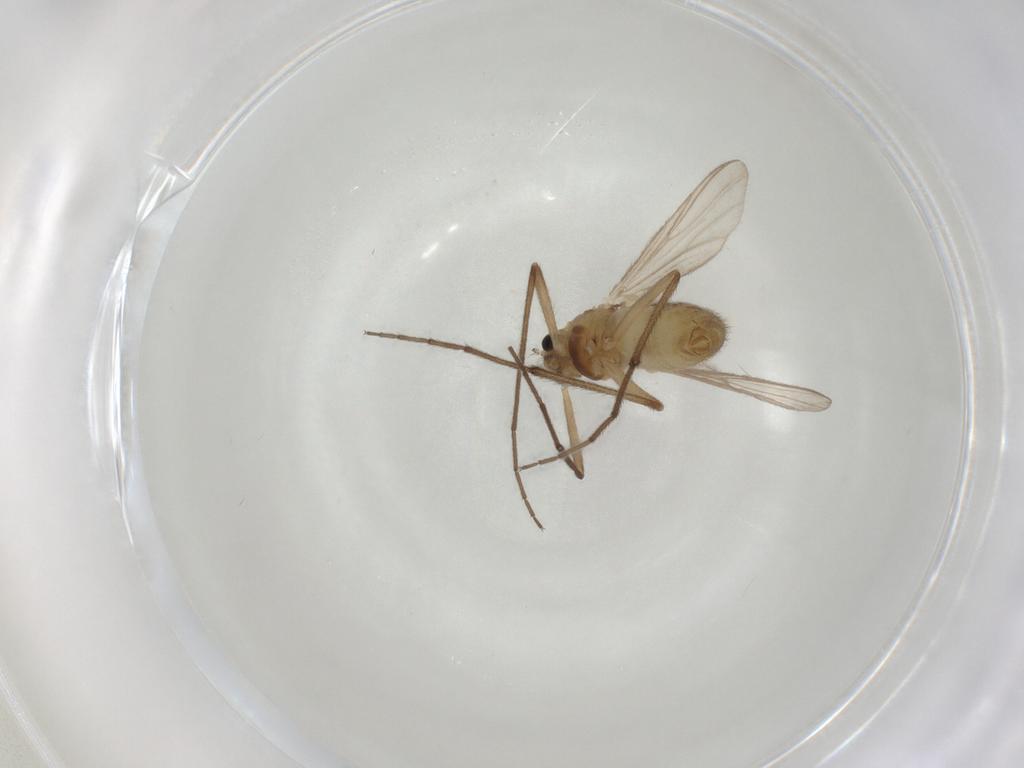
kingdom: Animalia
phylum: Arthropoda
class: Insecta
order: Diptera
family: Chironomidae
